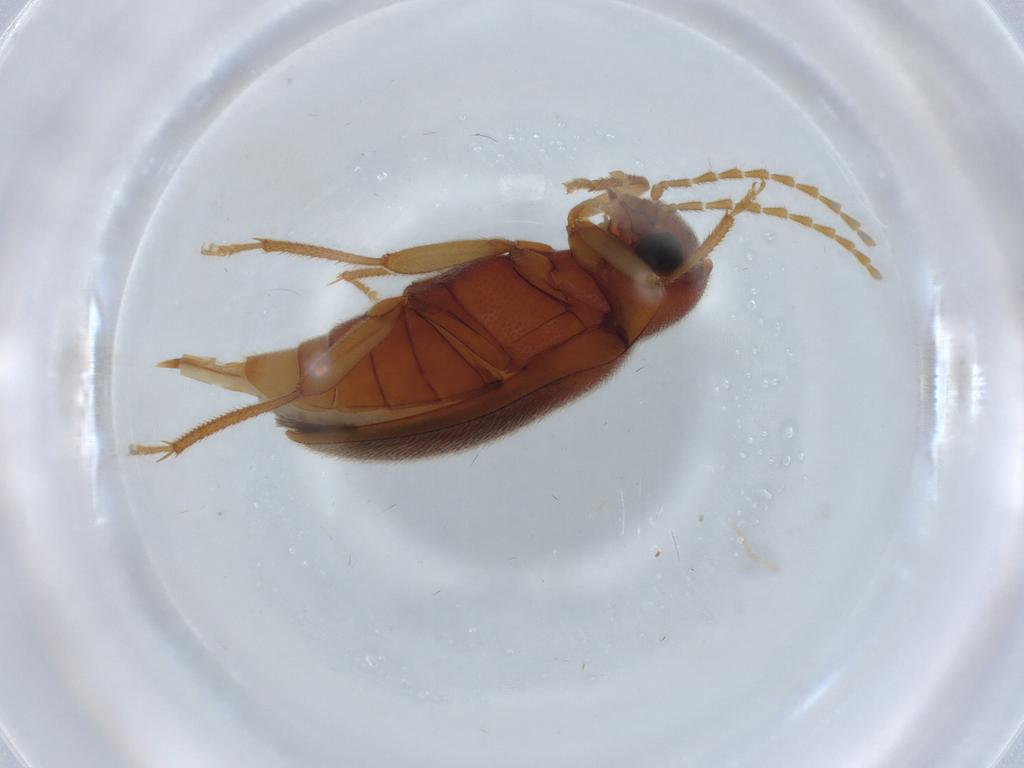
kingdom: Animalia
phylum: Arthropoda
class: Insecta
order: Coleoptera
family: Ptilodactylidae
